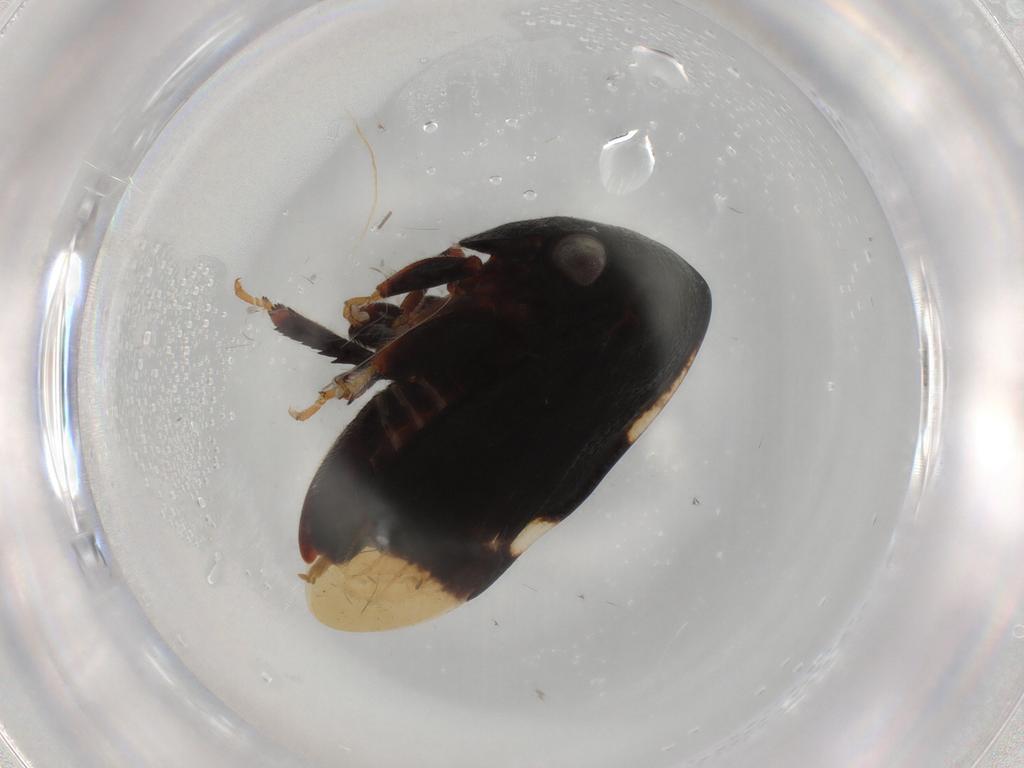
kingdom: Animalia
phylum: Arthropoda
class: Insecta
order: Hemiptera
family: Membracidae
